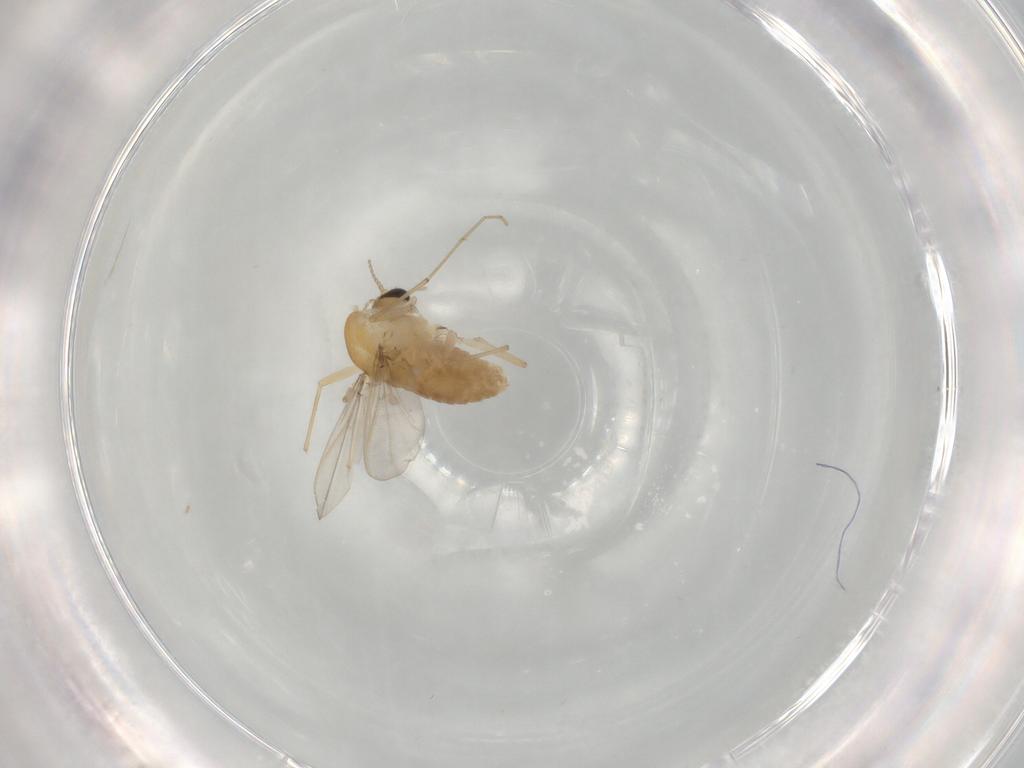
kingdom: Animalia
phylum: Arthropoda
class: Insecta
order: Diptera
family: Chironomidae
